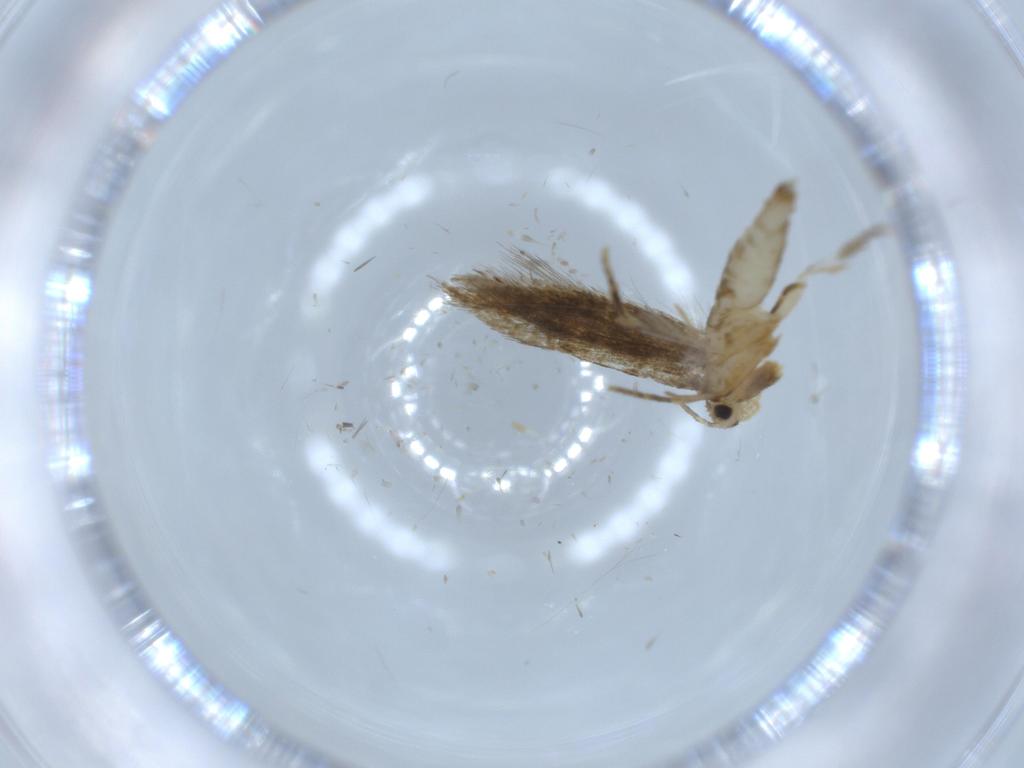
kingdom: Animalia
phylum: Arthropoda
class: Insecta
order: Lepidoptera
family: Tineidae
